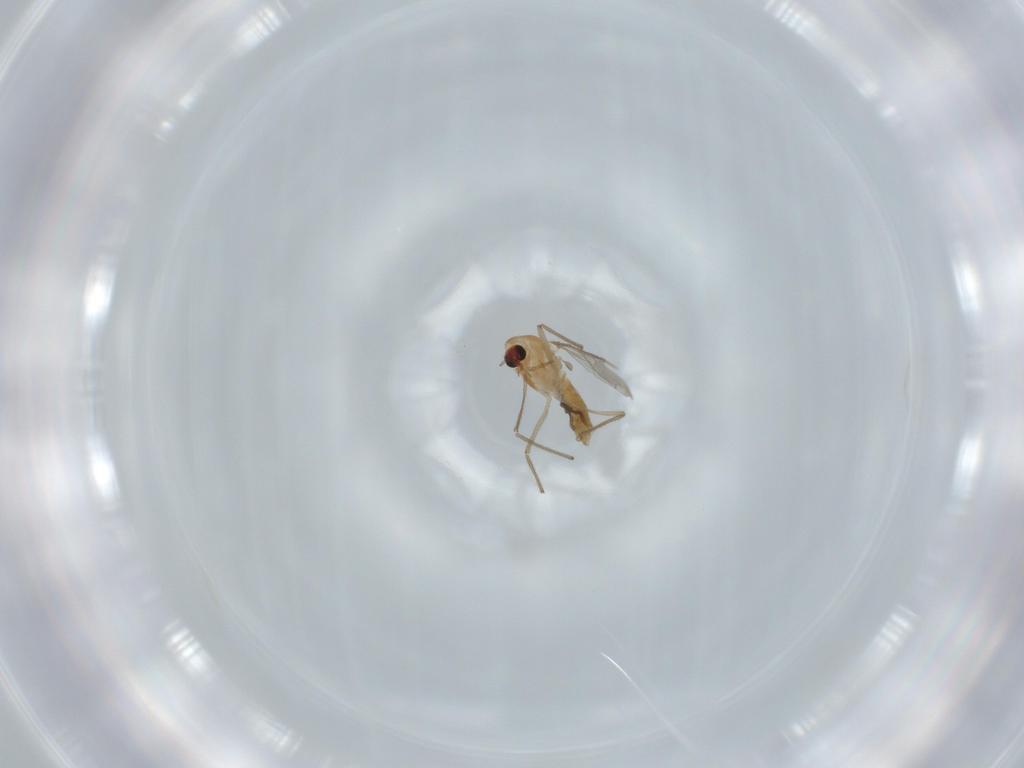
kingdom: Animalia
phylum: Arthropoda
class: Insecta
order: Diptera
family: Chironomidae
